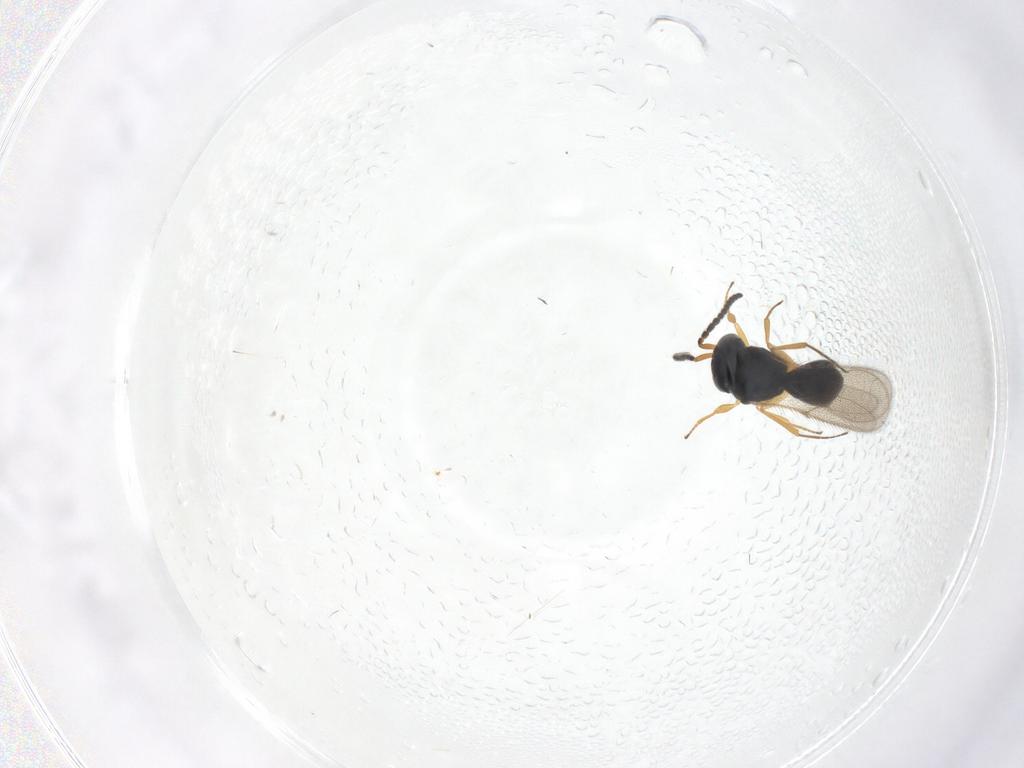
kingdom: Animalia
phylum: Arthropoda
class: Insecta
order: Hymenoptera
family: Scelionidae
